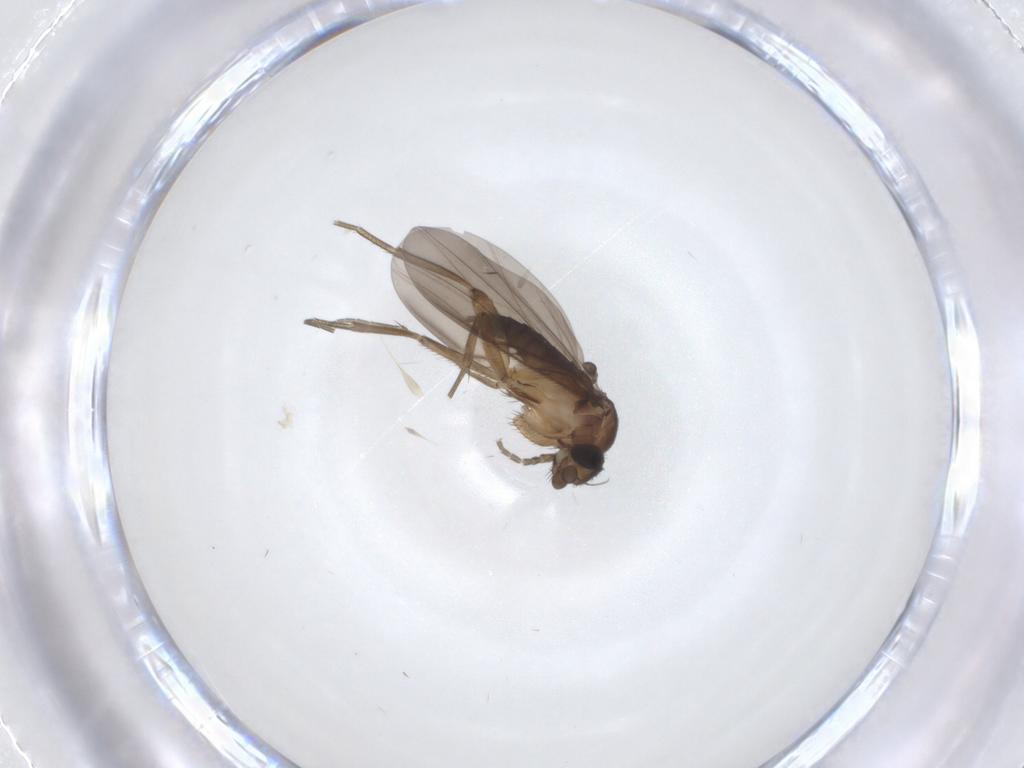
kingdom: Animalia
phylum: Arthropoda
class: Insecta
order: Diptera
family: Phoridae
